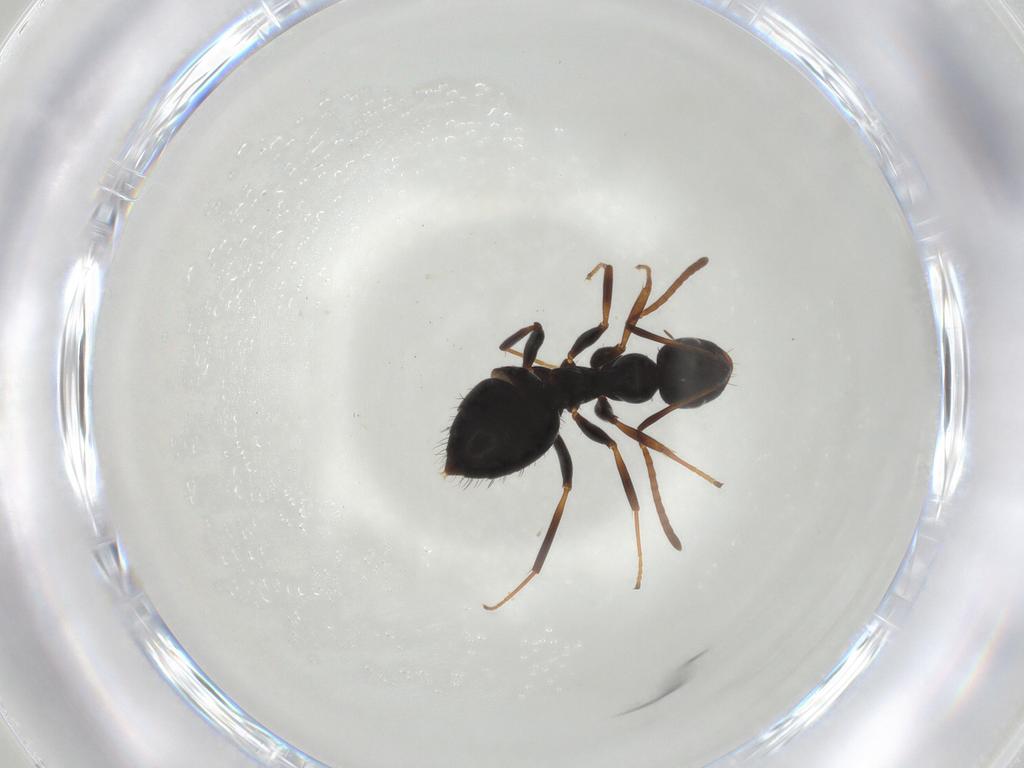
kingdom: Animalia
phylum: Arthropoda
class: Insecta
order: Hymenoptera
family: Formicidae
